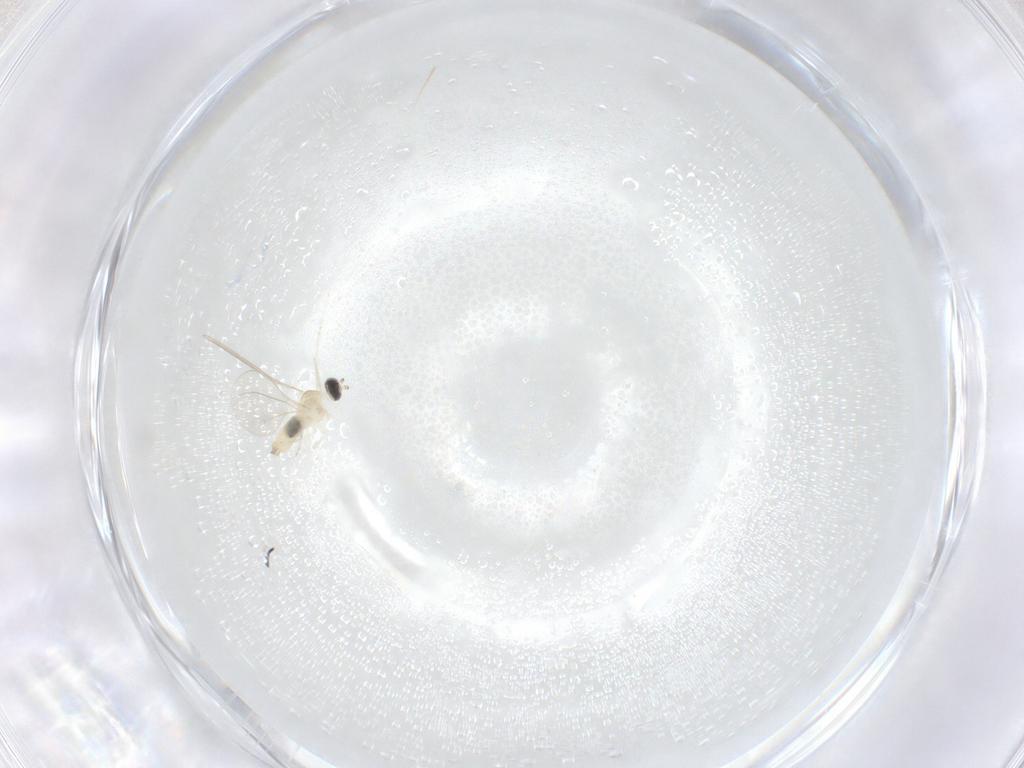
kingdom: Animalia
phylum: Arthropoda
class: Insecta
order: Diptera
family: Cecidomyiidae
